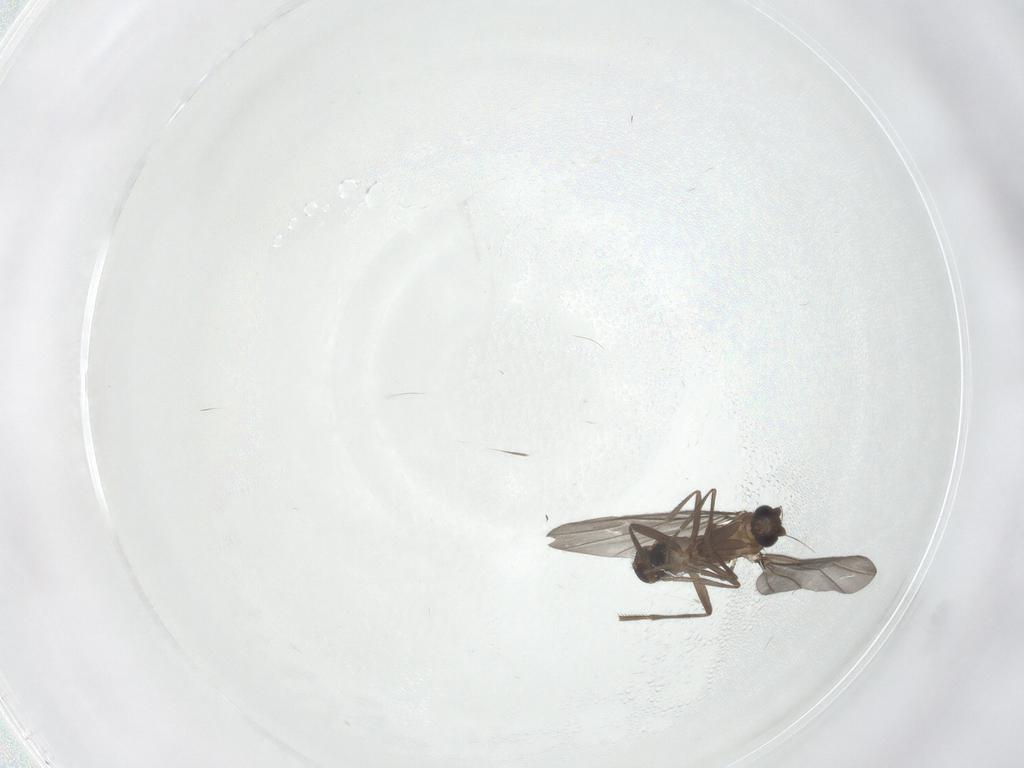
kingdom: Animalia
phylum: Arthropoda
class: Insecta
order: Diptera
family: Phoridae
